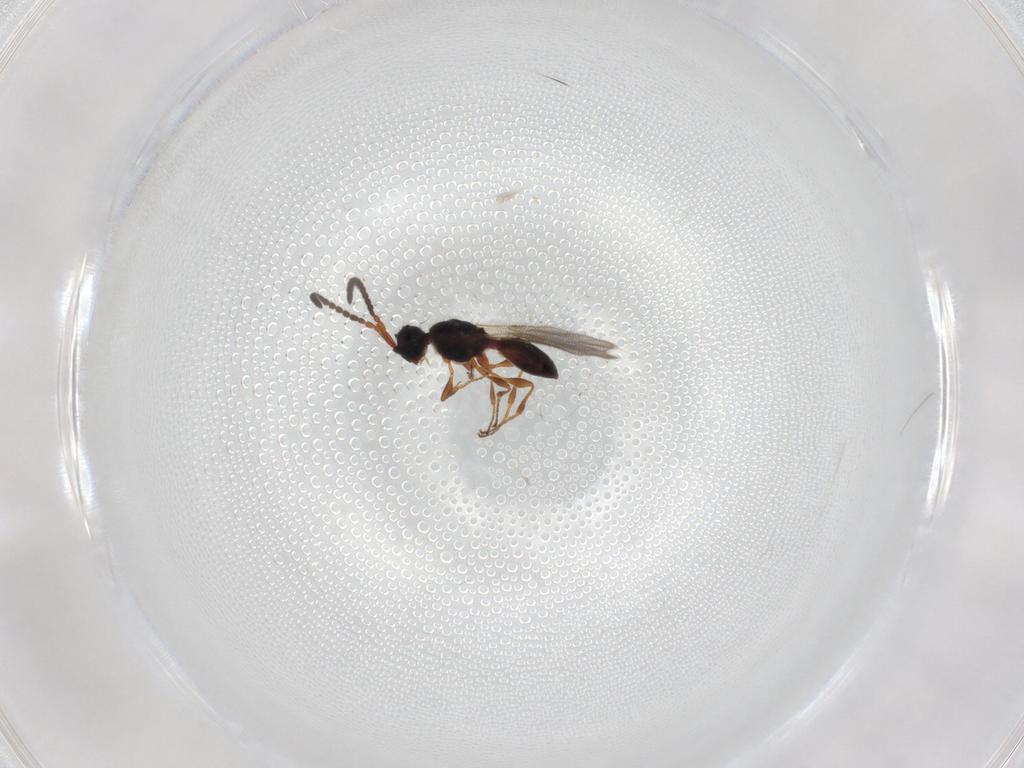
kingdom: Animalia
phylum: Arthropoda
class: Insecta
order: Hymenoptera
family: Diapriidae
